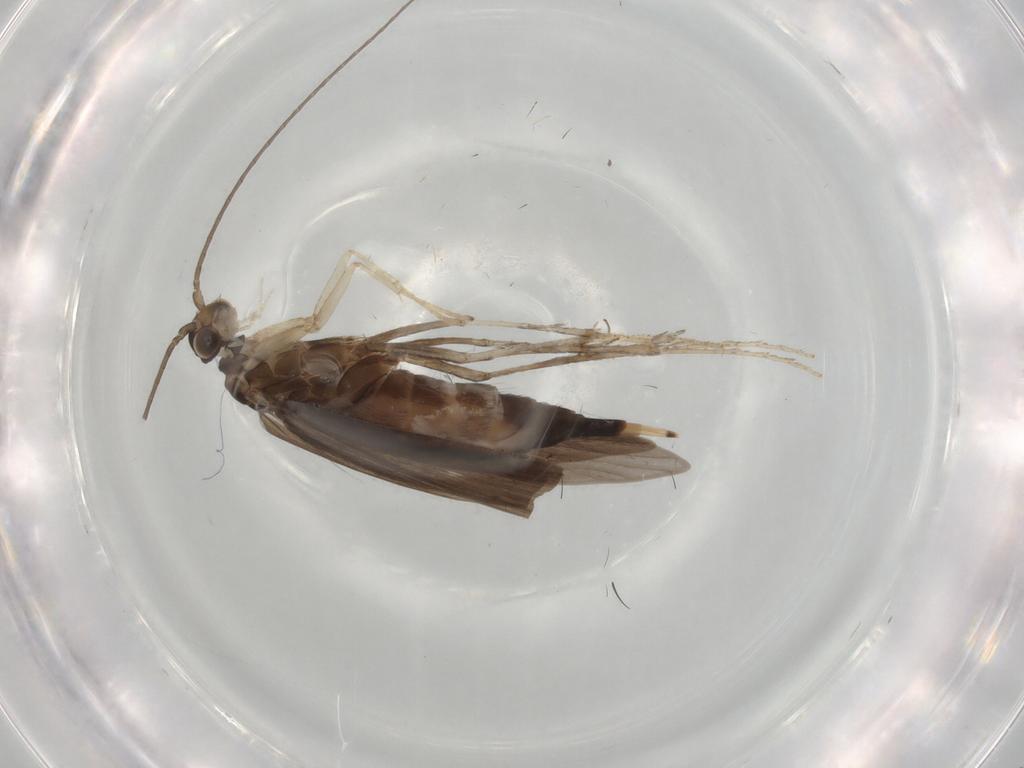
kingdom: Animalia
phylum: Arthropoda
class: Insecta
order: Trichoptera
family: Xiphocentronidae
